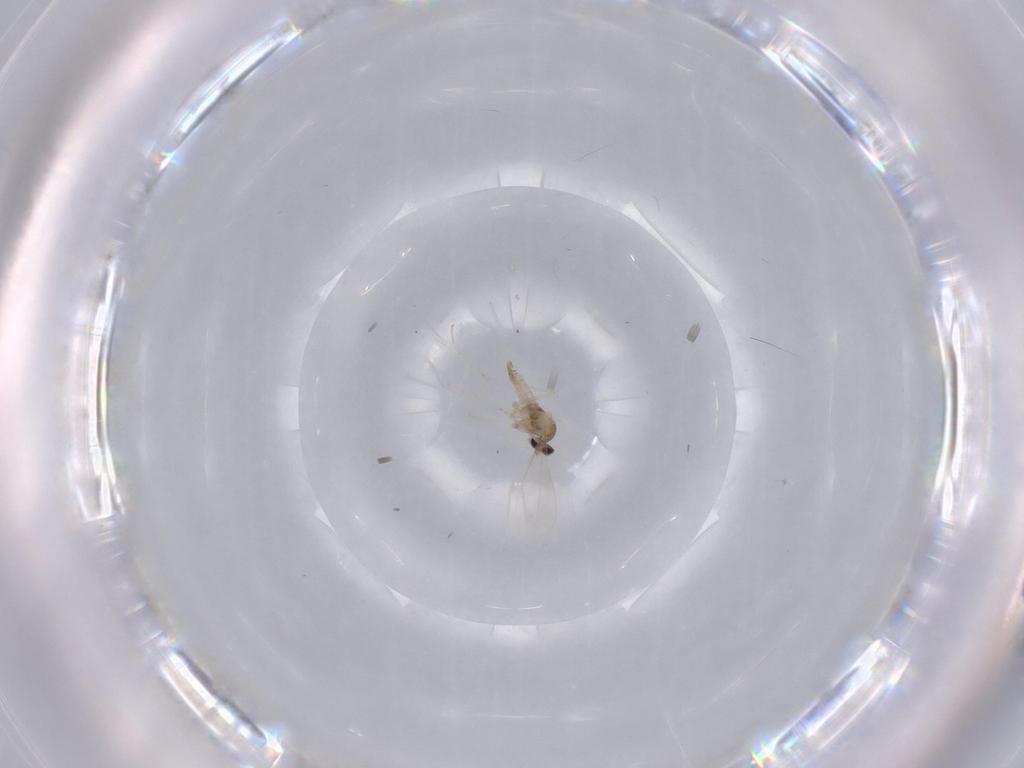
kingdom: Animalia
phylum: Arthropoda
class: Insecta
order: Diptera
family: Cecidomyiidae
